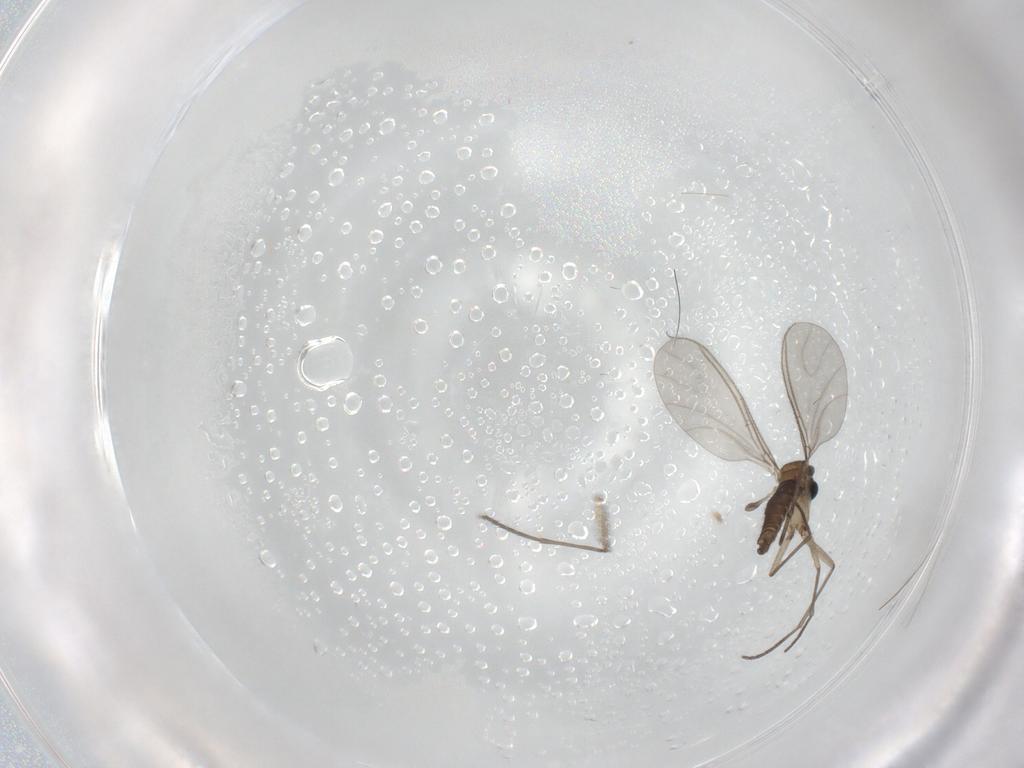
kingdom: Animalia
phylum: Arthropoda
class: Insecta
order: Diptera
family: Sciaridae
